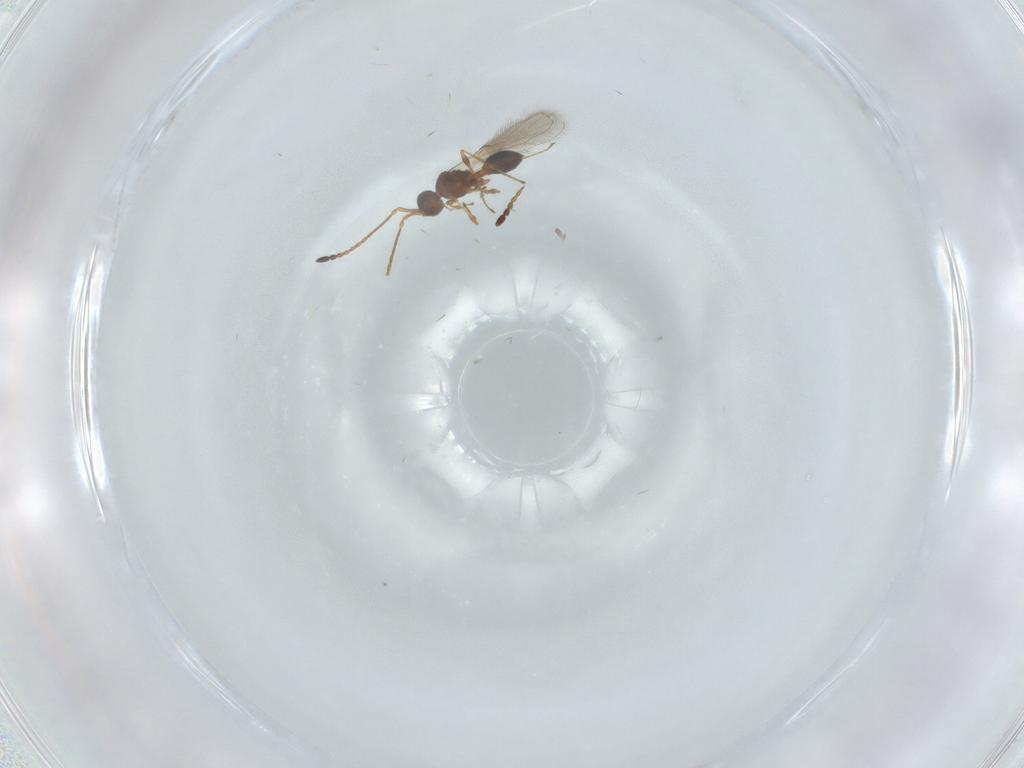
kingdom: Animalia
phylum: Arthropoda
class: Insecta
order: Hymenoptera
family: Diapriidae
